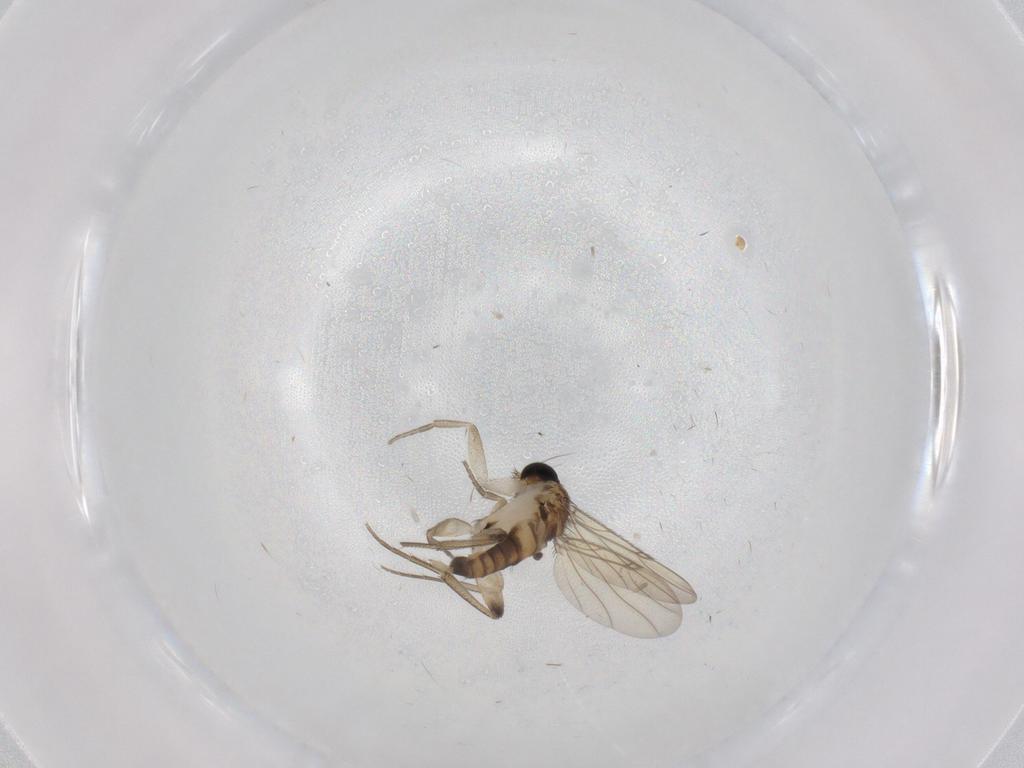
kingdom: Animalia
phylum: Arthropoda
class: Insecta
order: Diptera
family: Phoridae
